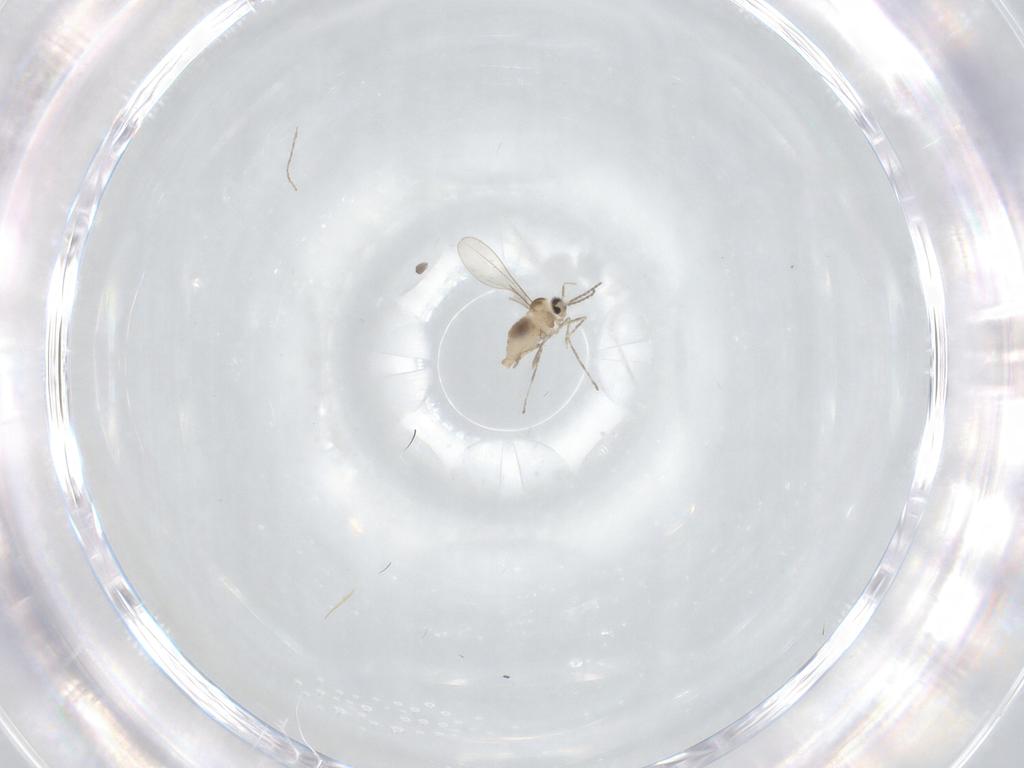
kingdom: Animalia
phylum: Arthropoda
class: Insecta
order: Diptera
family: Cecidomyiidae
